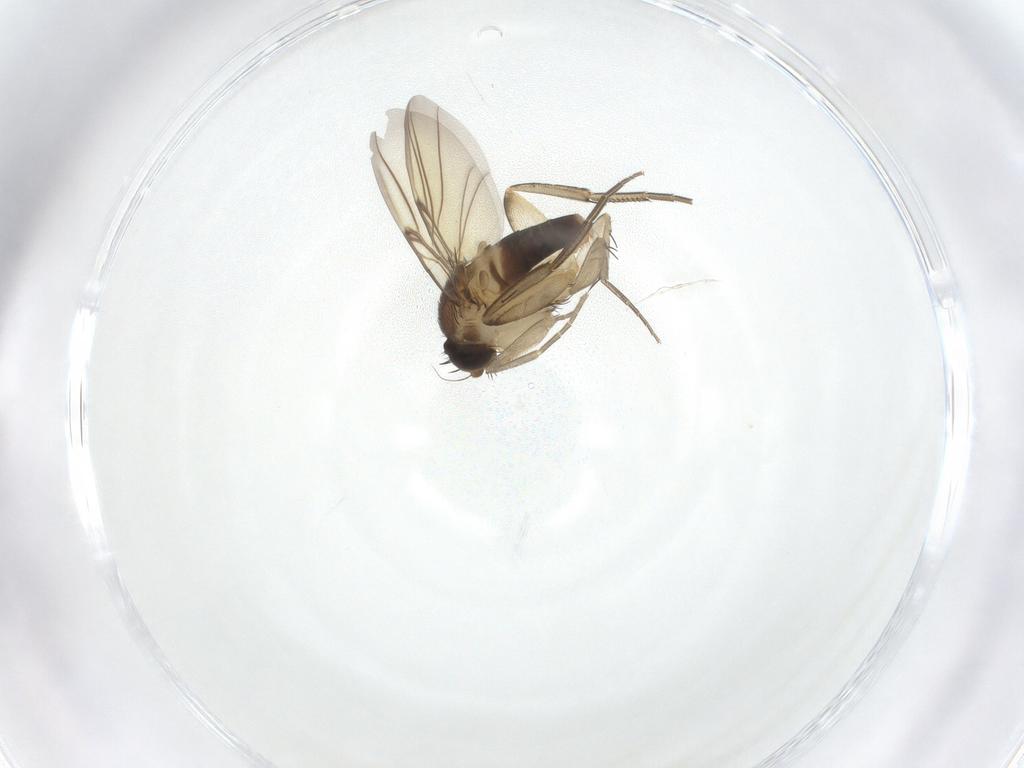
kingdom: Animalia
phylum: Arthropoda
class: Insecta
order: Diptera
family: Phoridae
